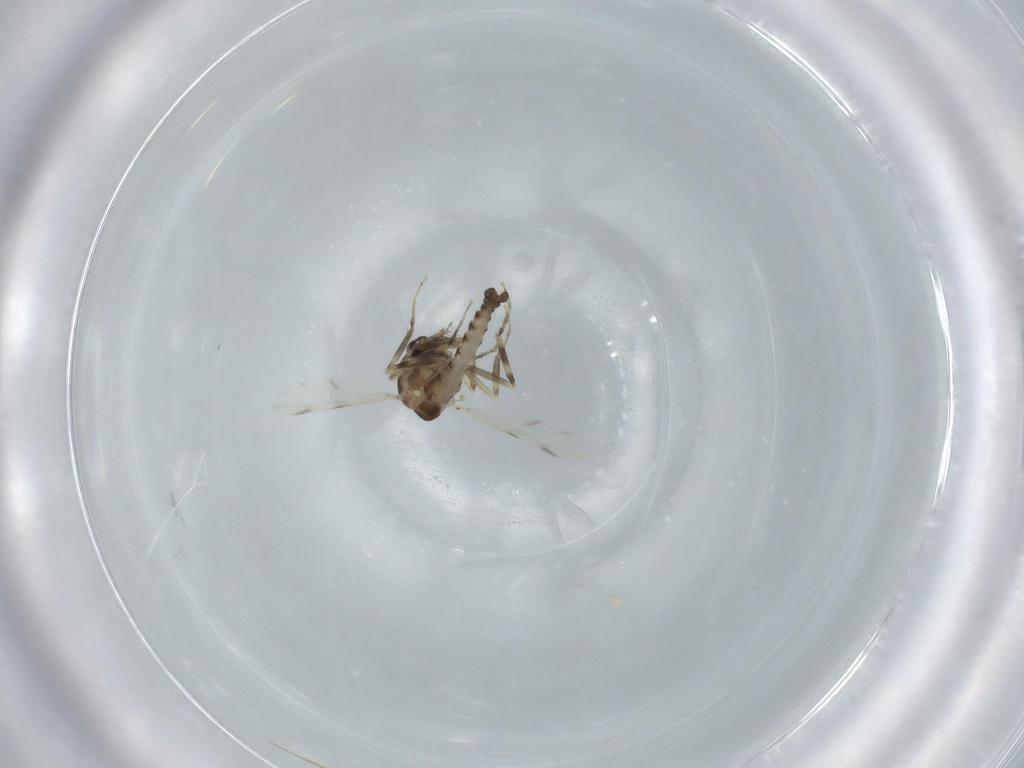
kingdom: Animalia
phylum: Arthropoda
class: Insecta
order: Diptera
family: Ceratopogonidae
